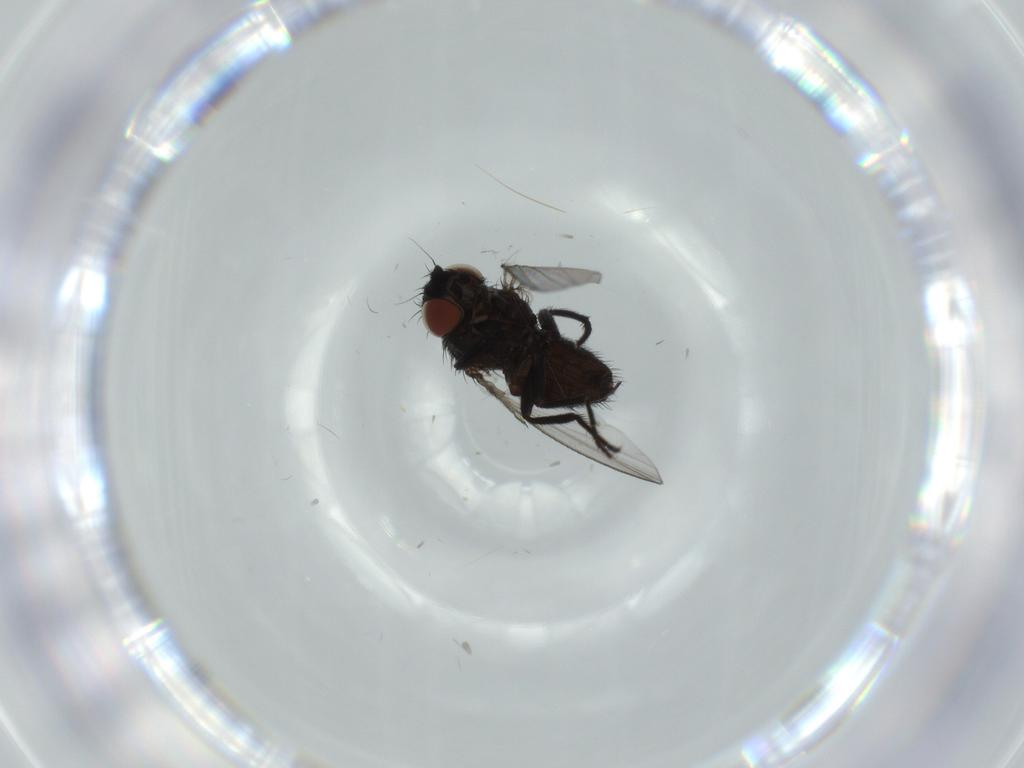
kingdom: Animalia
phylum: Arthropoda
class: Insecta
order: Diptera
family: Milichiidae
